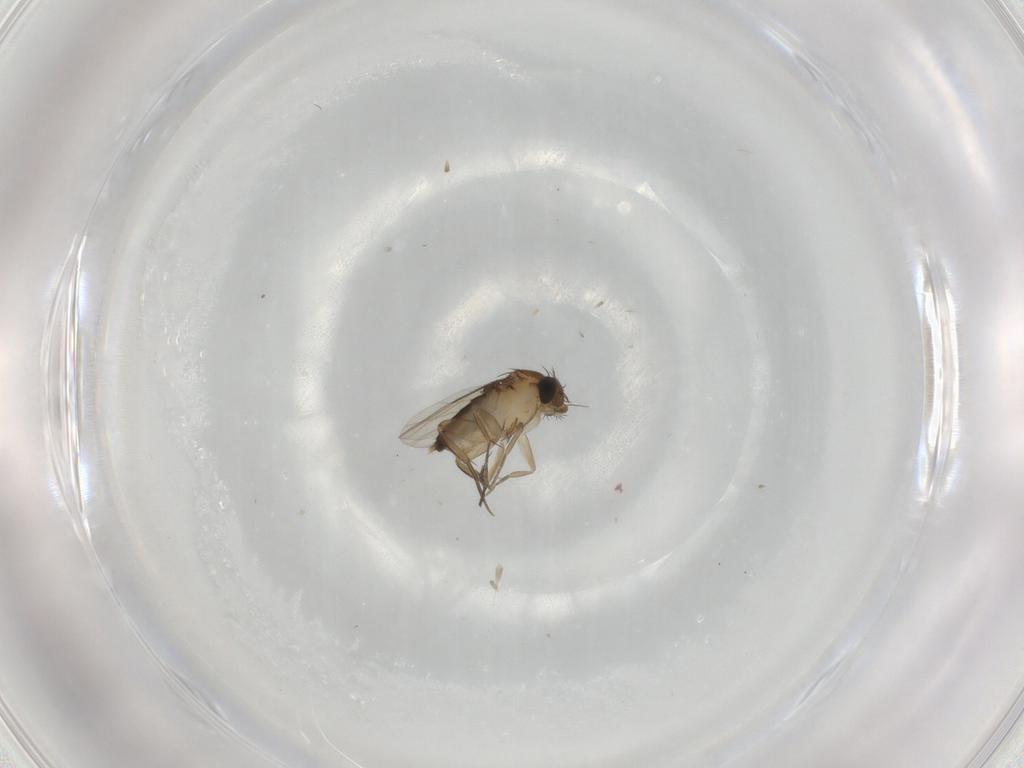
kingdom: Animalia
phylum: Arthropoda
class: Insecta
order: Diptera
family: Phoridae
